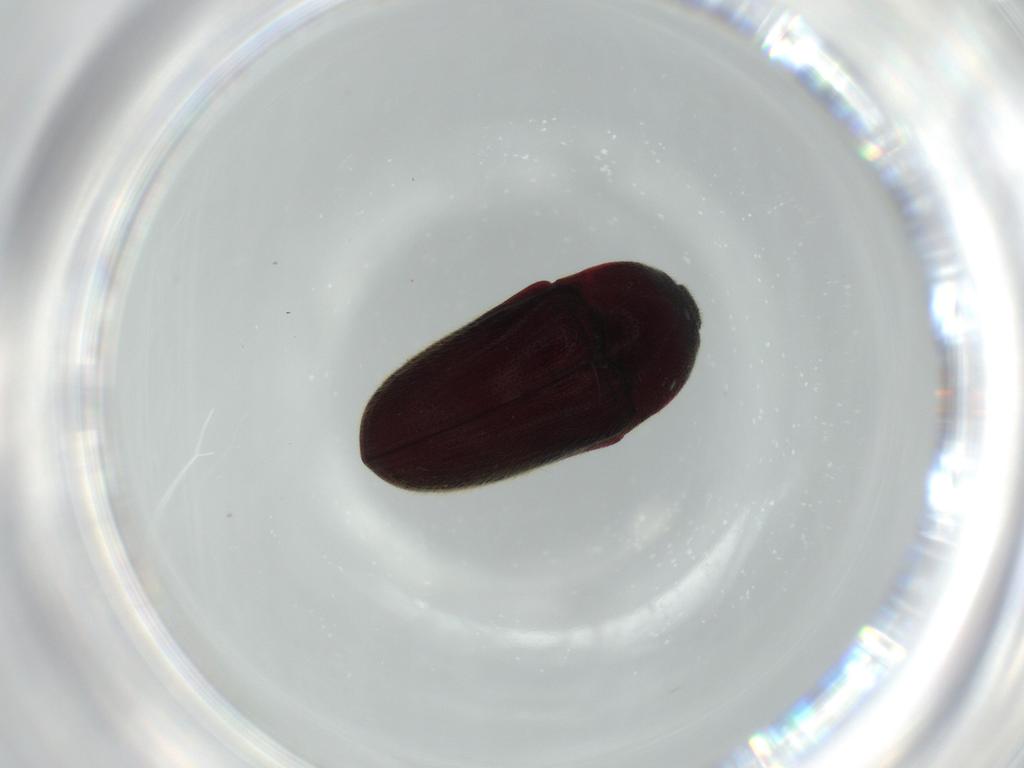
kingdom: Animalia
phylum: Arthropoda
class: Insecta
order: Coleoptera
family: Throscidae
